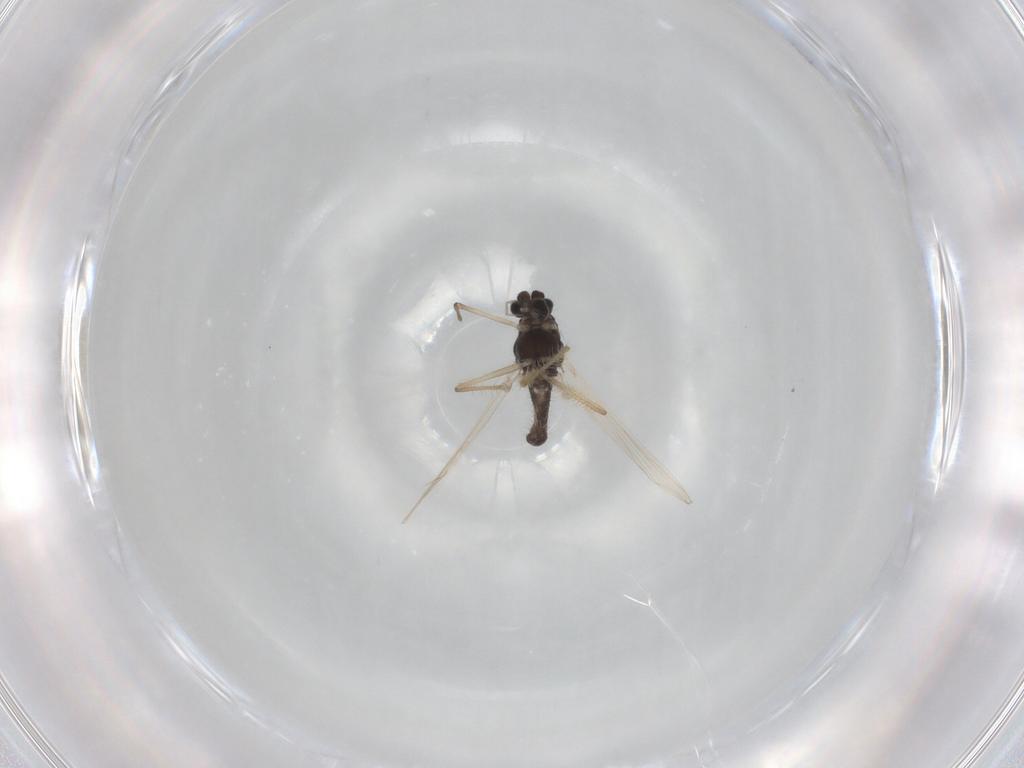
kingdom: Animalia
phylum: Arthropoda
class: Insecta
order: Diptera
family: Chironomidae
